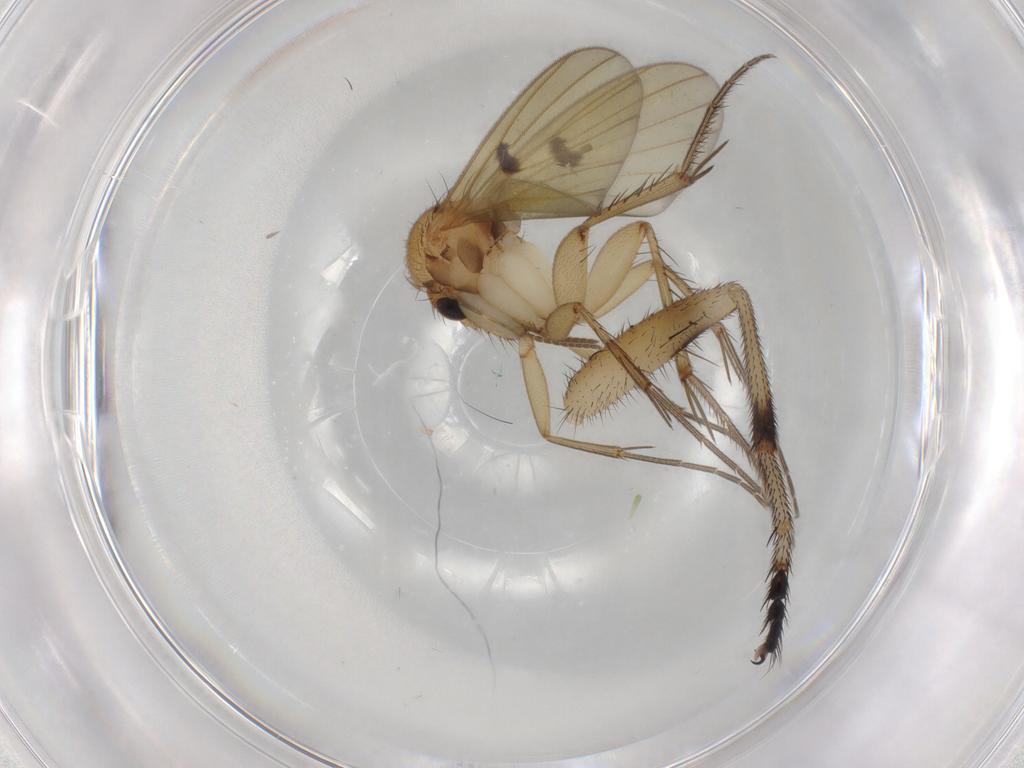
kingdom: Animalia
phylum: Arthropoda
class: Insecta
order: Diptera
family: Heleomyzidae
